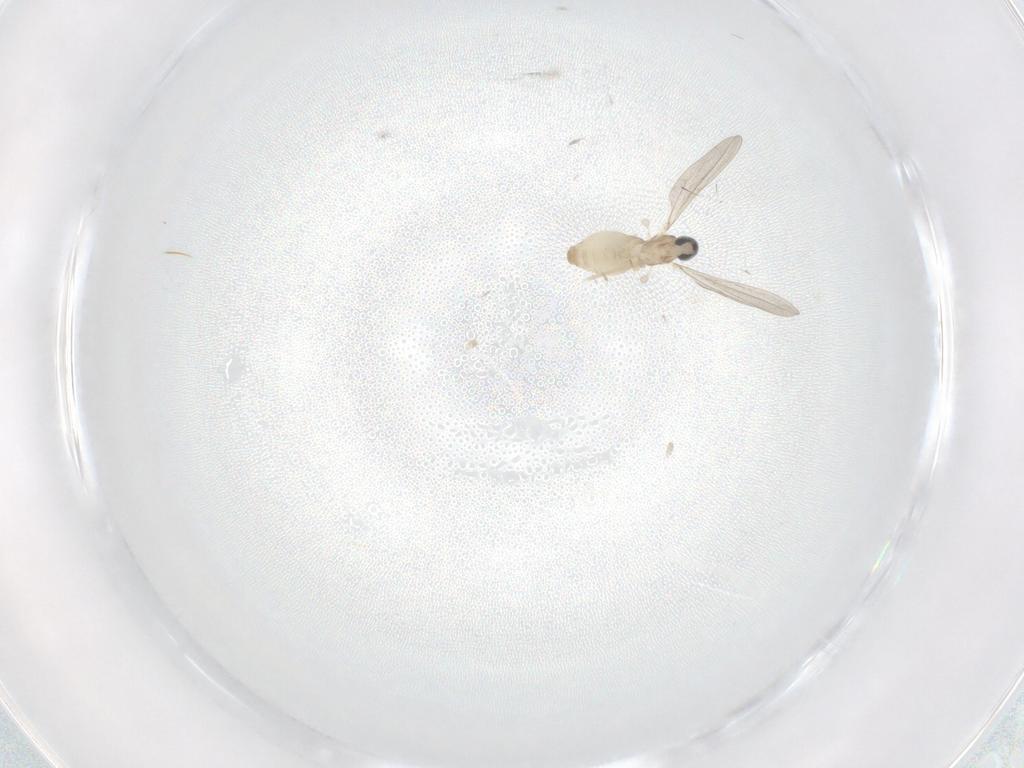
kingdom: Animalia
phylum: Arthropoda
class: Insecta
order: Diptera
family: Cecidomyiidae
